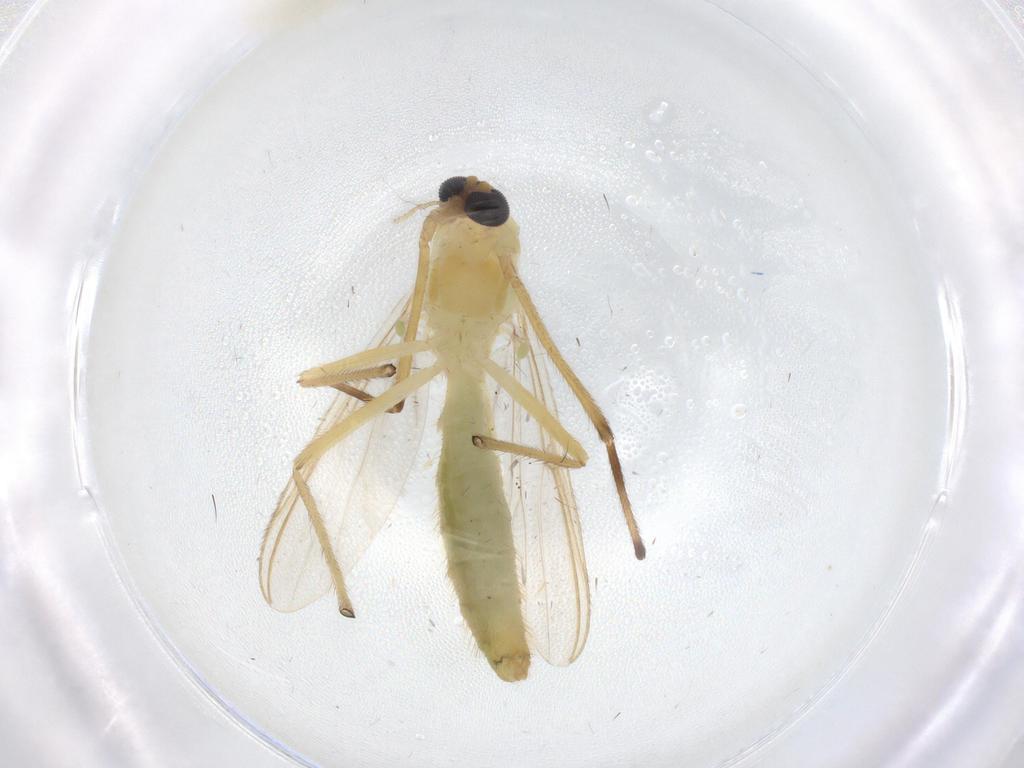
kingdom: Animalia
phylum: Arthropoda
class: Insecta
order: Diptera
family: Chironomidae
